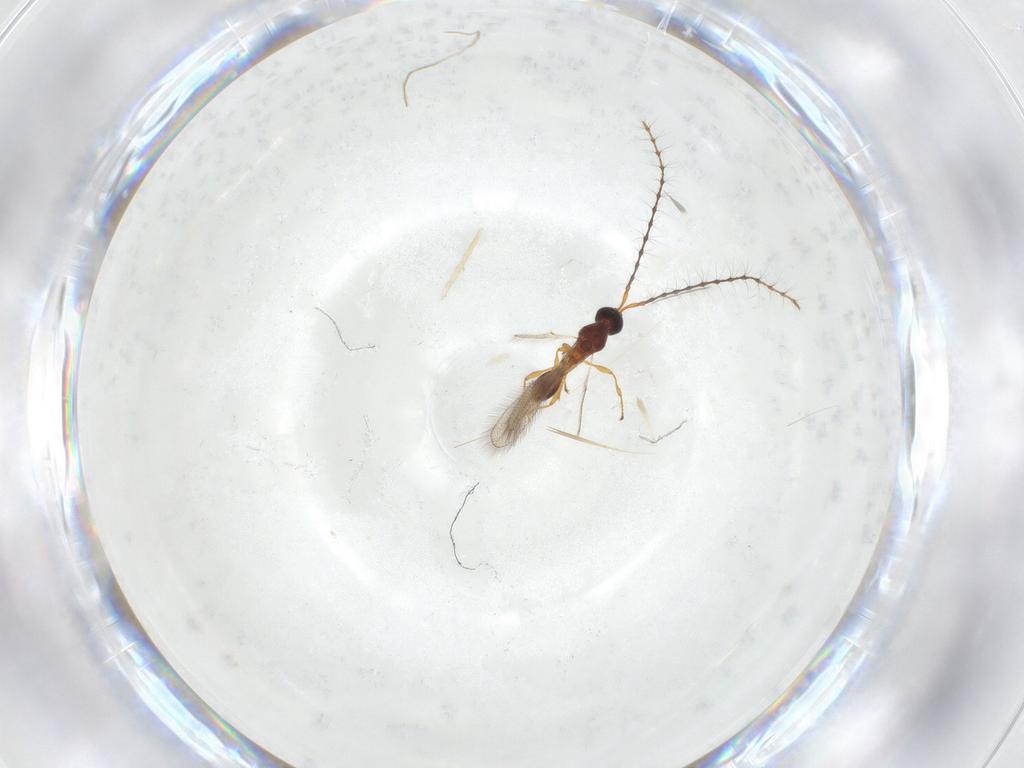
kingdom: Animalia
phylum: Arthropoda
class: Insecta
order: Hymenoptera
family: Diapriidae
